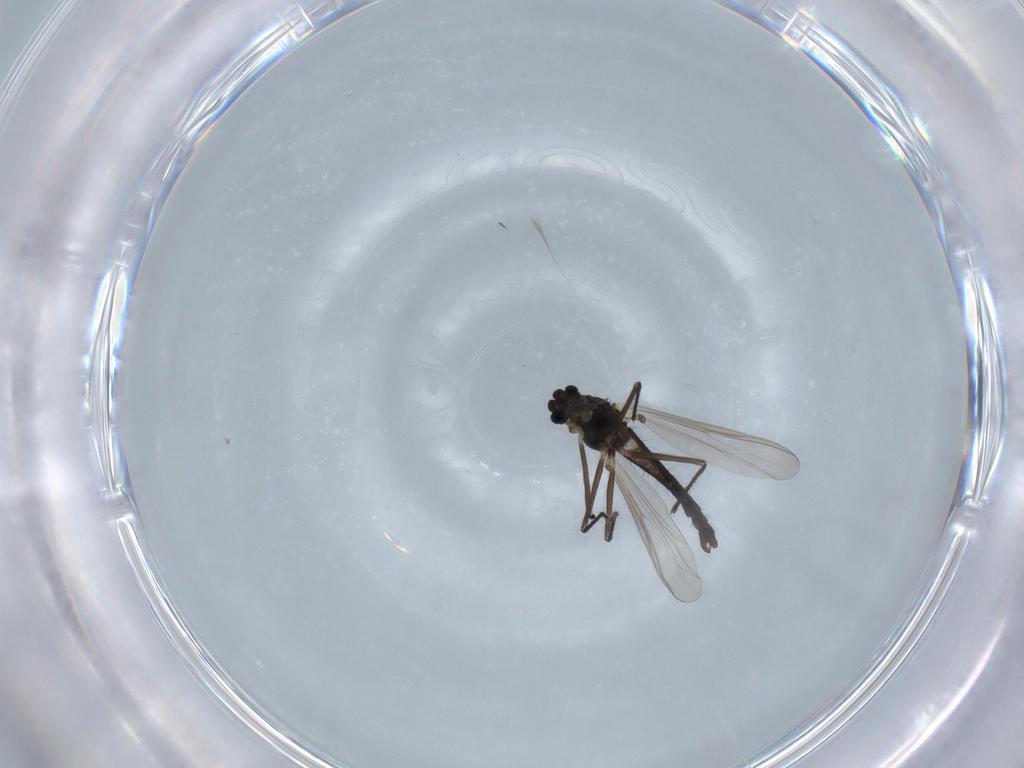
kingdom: Animalia
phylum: Arthropoda
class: Insecta
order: Diptera
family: Chironomidae
